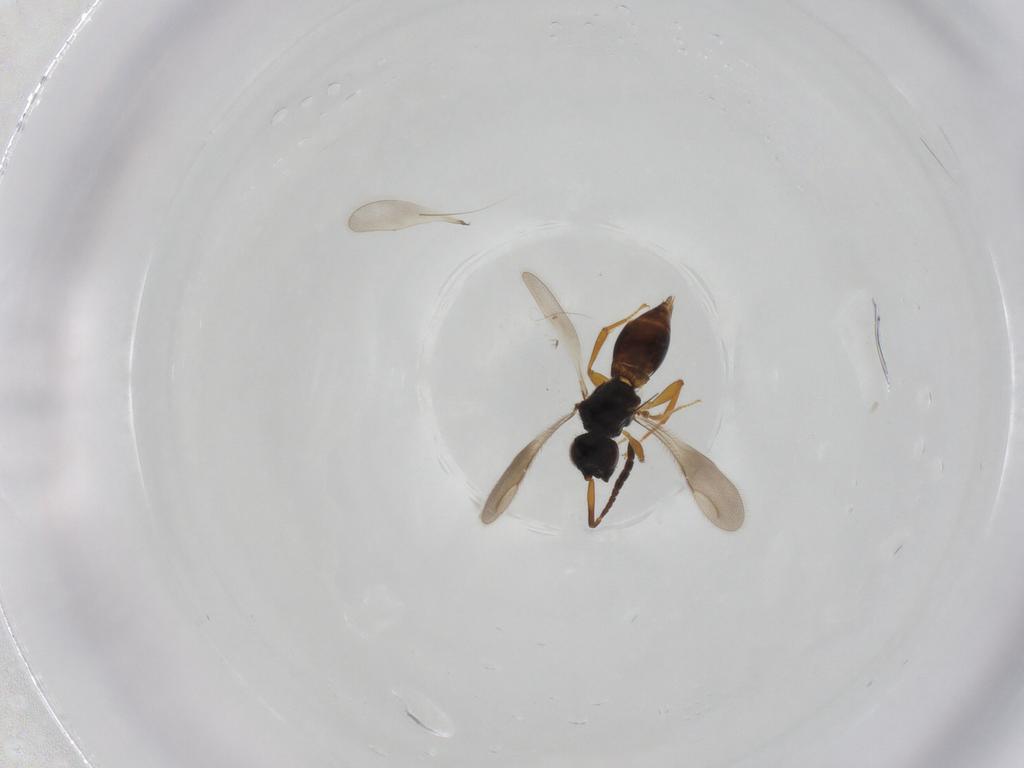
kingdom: Animalia
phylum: Arthropoda
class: Insecta
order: Hymenoptera
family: Ceraphronidae
